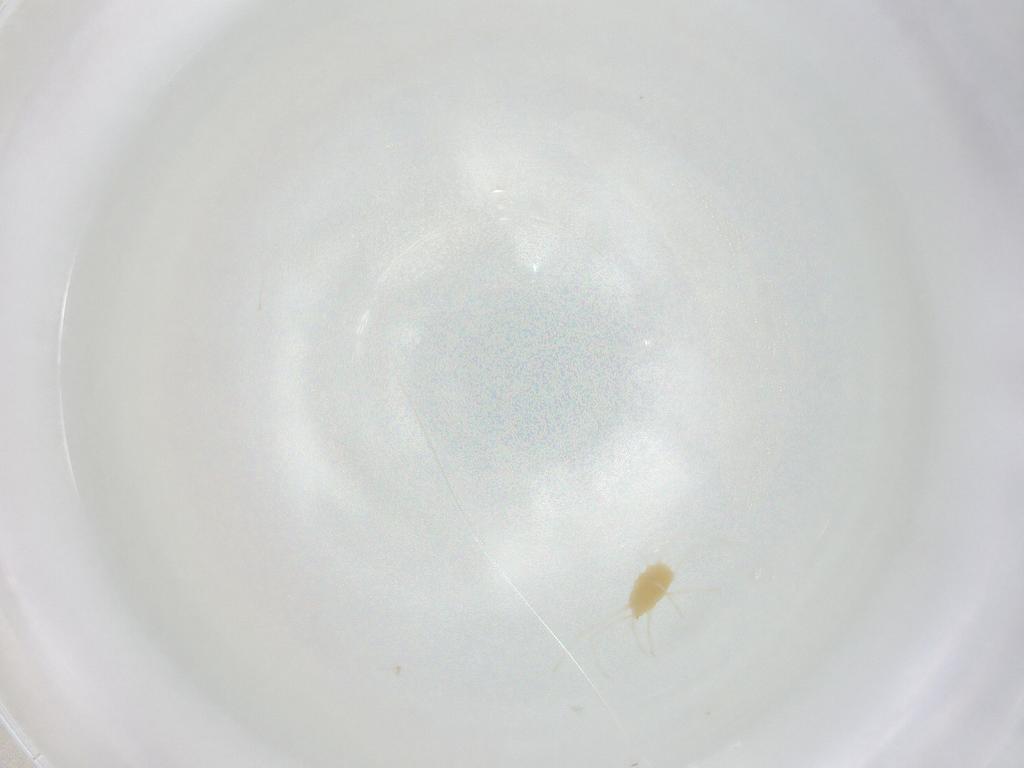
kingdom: Animalia
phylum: Arthropoda
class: Arachnida
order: Trombidiformes
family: Tetranychidae
